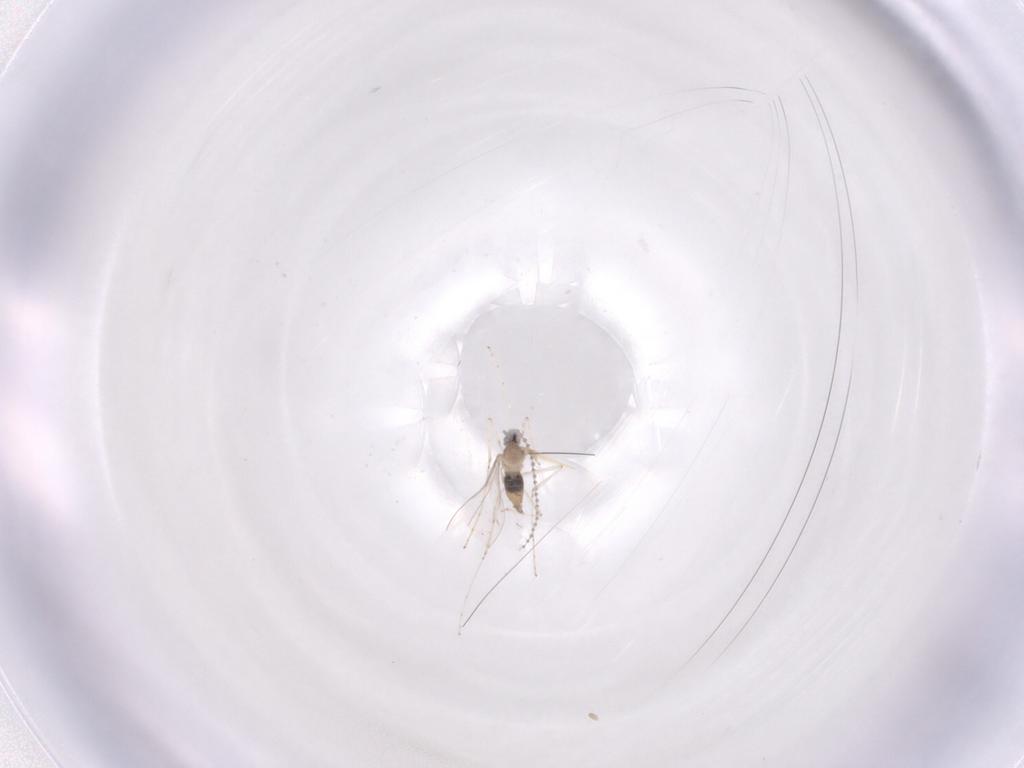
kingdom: Animalia
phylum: Arthropoda
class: Insecta
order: Diptera
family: Cecidomyiidae
